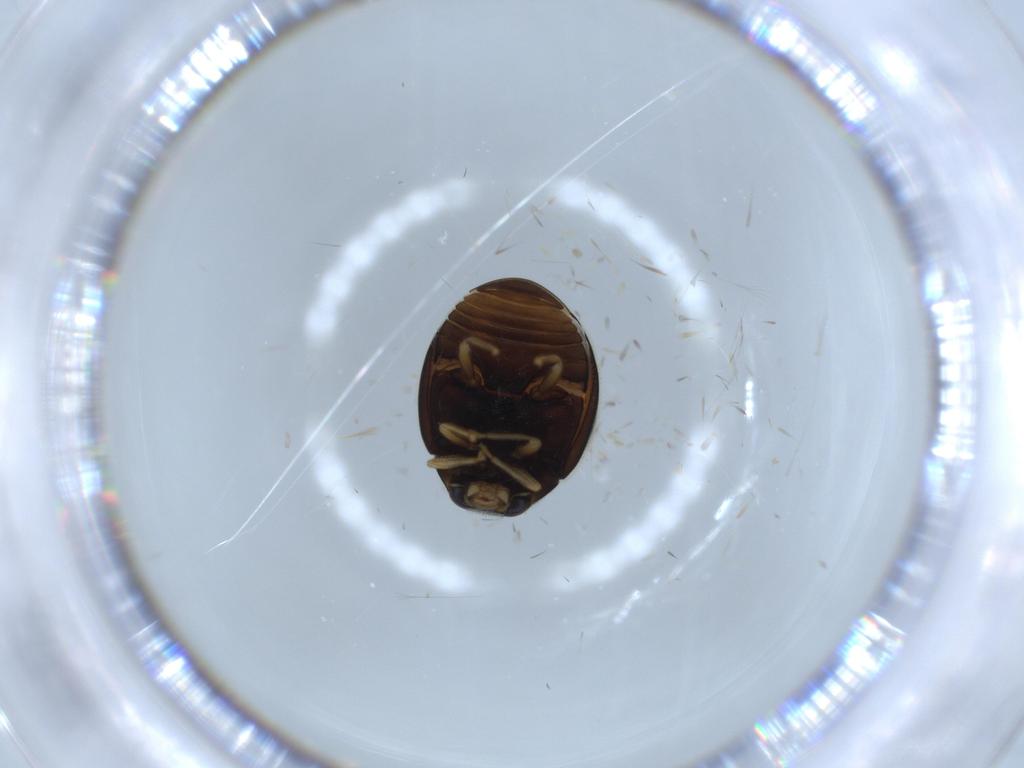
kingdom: Animalia
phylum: Arthropoda
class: Insecta
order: Coleoptera
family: Coccinellidae
